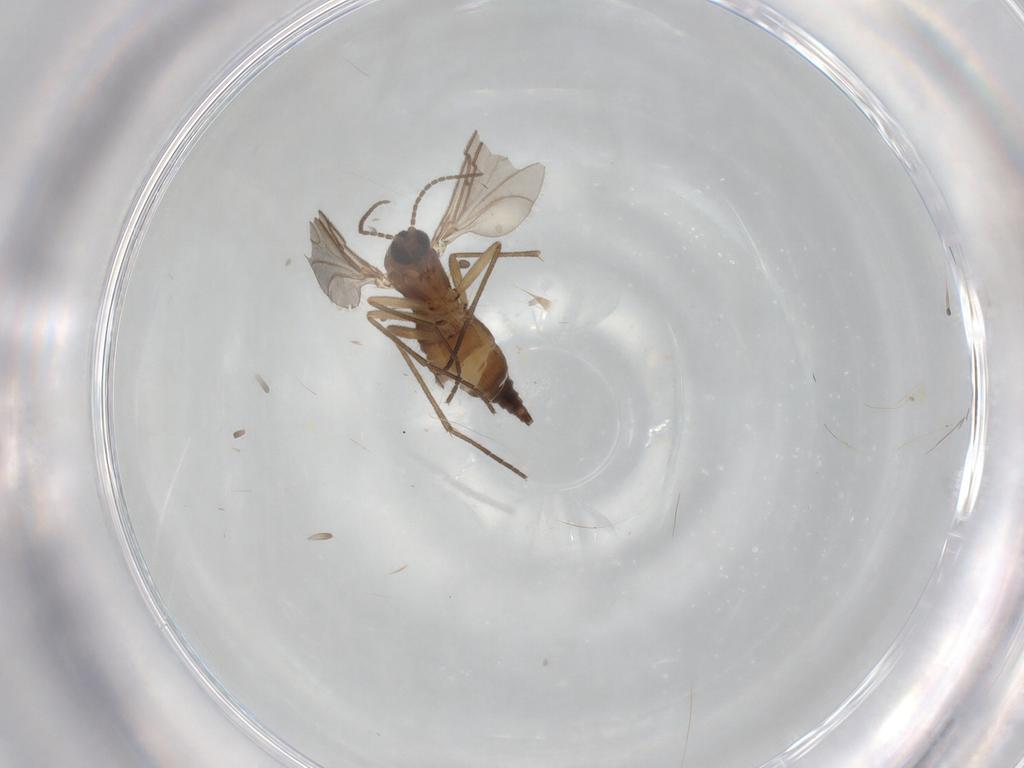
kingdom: Animalia
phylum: Arthropoda
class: Insecta
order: Diptera
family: Sciaridae
